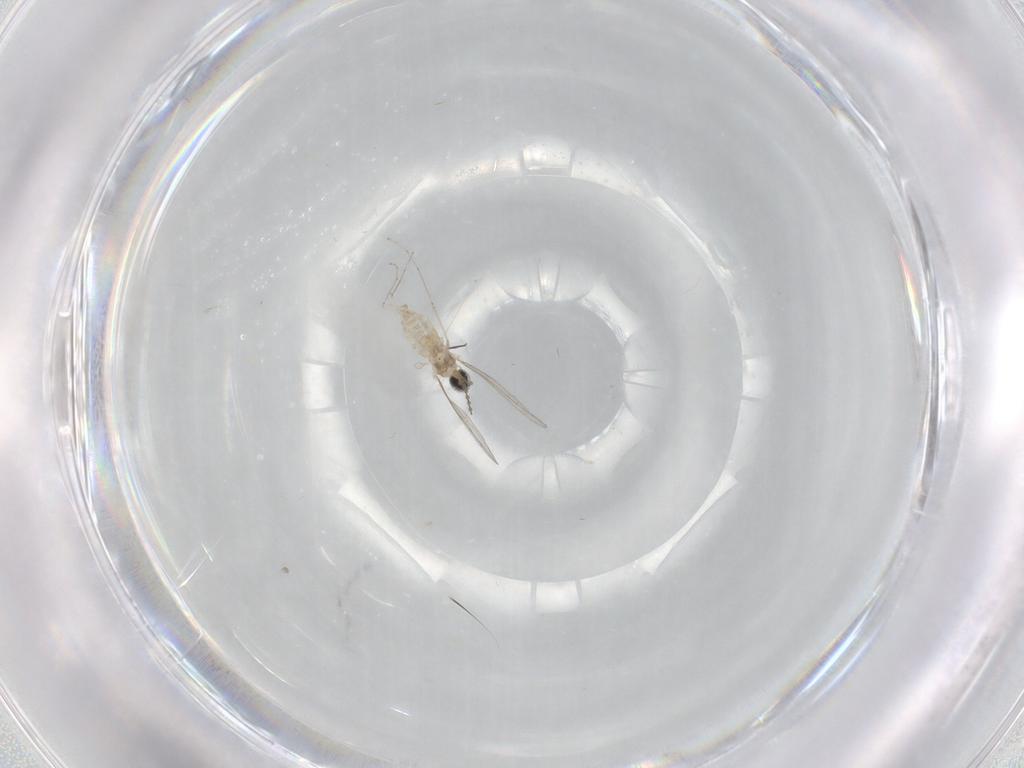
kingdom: Animalia
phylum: Arthropoda
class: Insecta
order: Diptera
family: Cecidomyiidae
